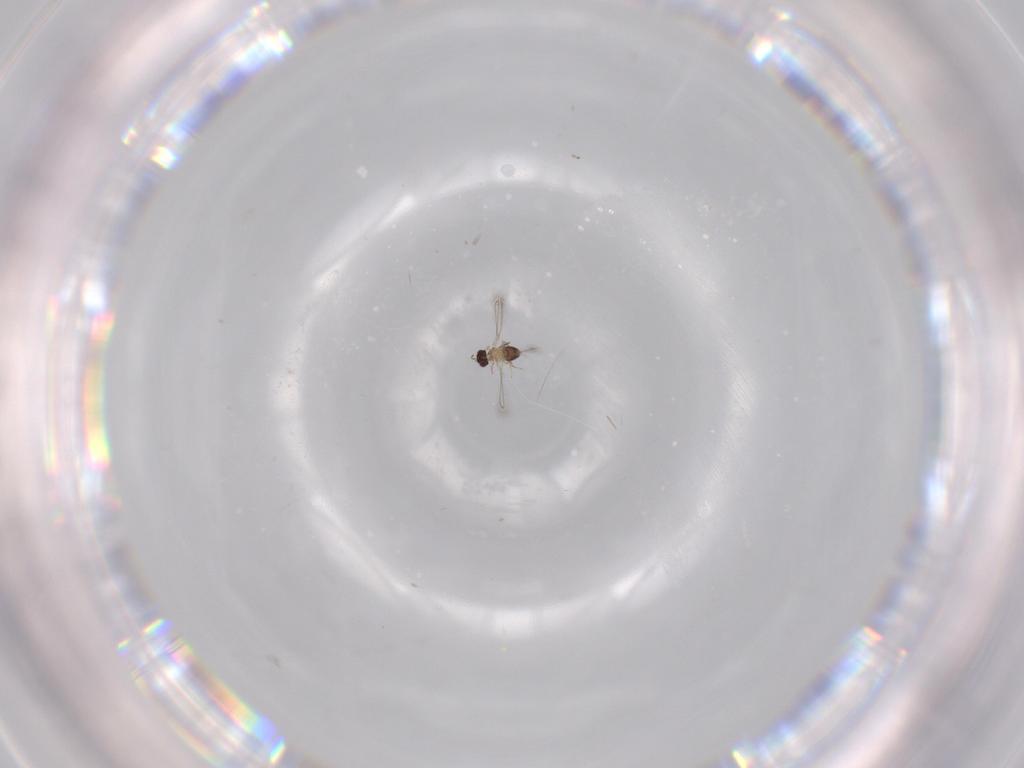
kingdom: Animalia
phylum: Arthropoda
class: Insecta
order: Hymenoptera
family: Mymaridae
